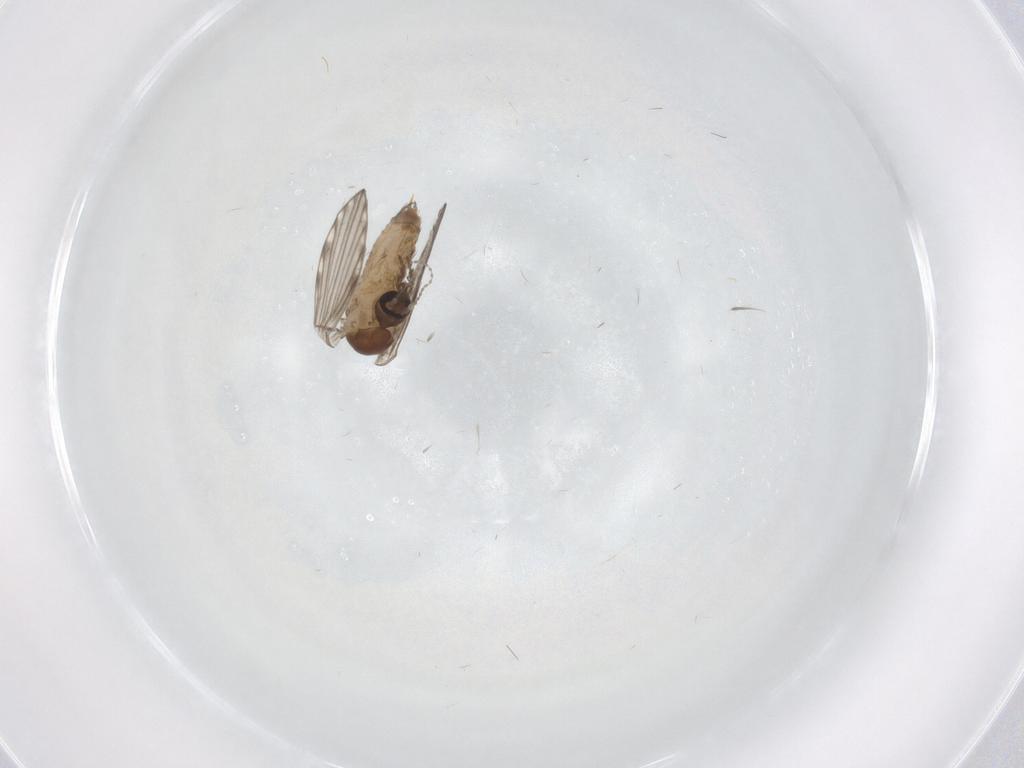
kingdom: Animalia
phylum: Arthropoda
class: Insecta
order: Diptera
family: Psychodidae
